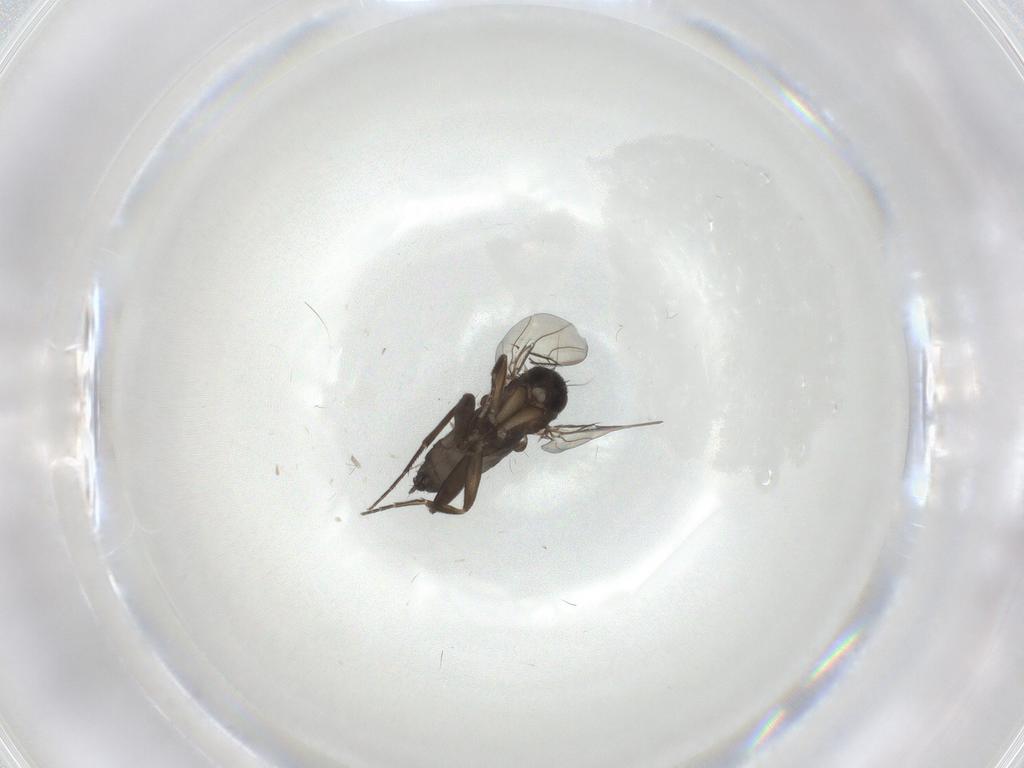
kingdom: Animalia
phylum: Arthropoda
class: Insecta
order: Diptera
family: Phoridae
